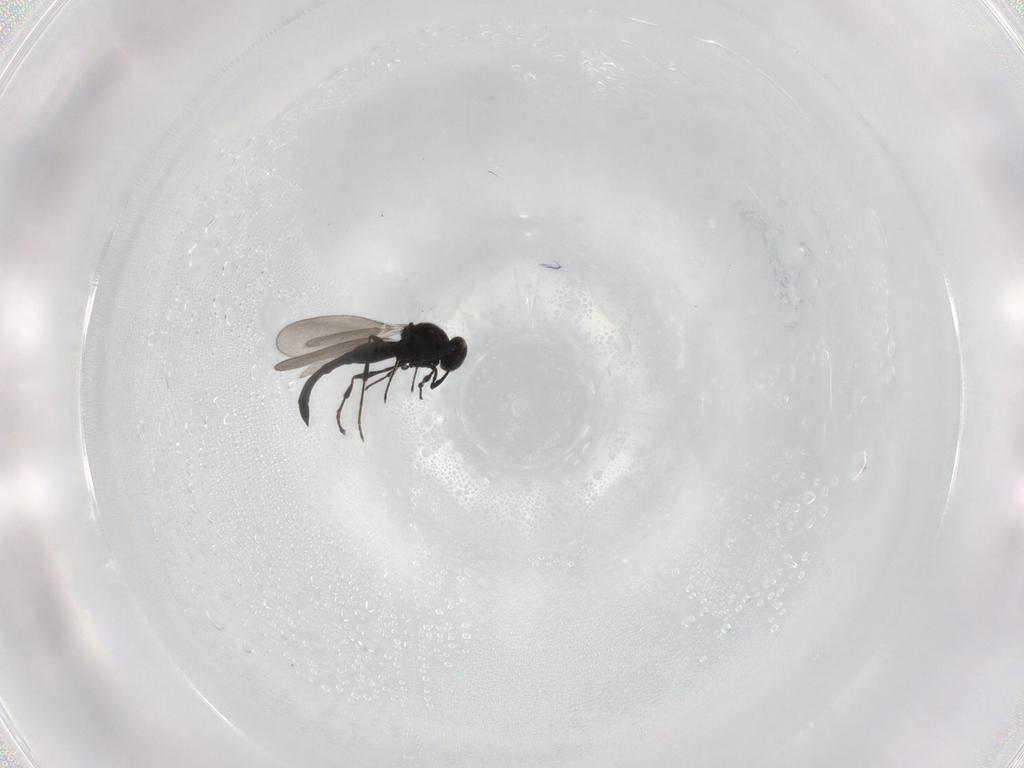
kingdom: Animalia
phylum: Arthropoda
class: Insecta
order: Hymenoptera
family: Platygastridae
